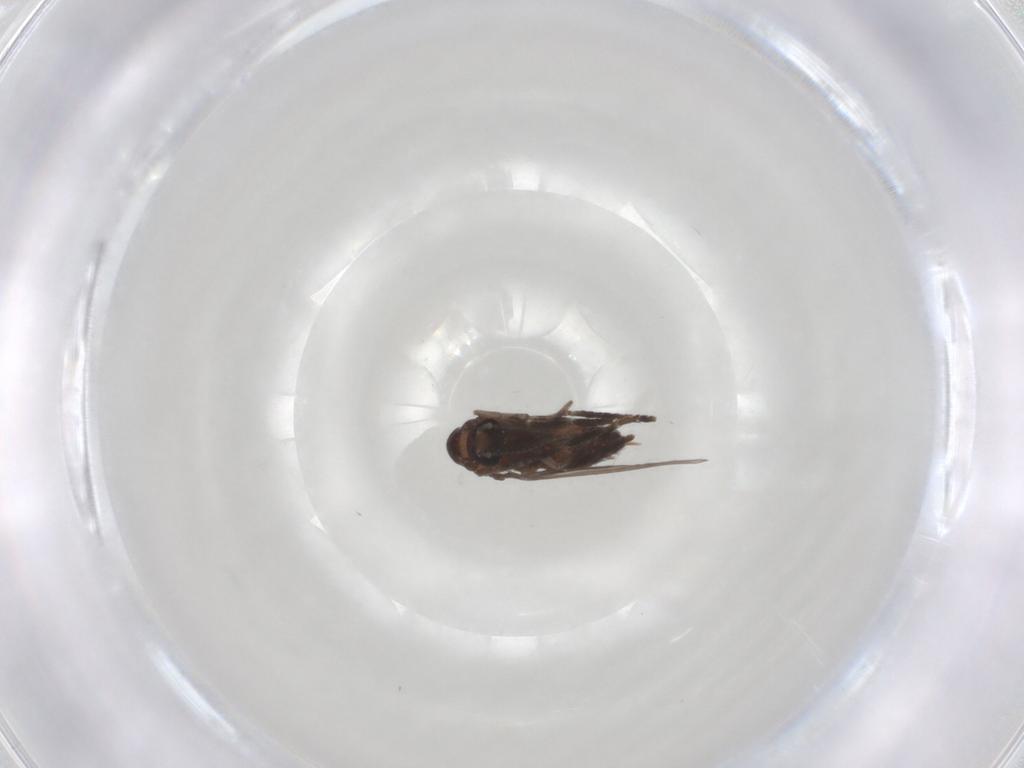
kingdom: Animalia
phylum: Arthropoda
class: Insecta
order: Diptera
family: Psychodidae
